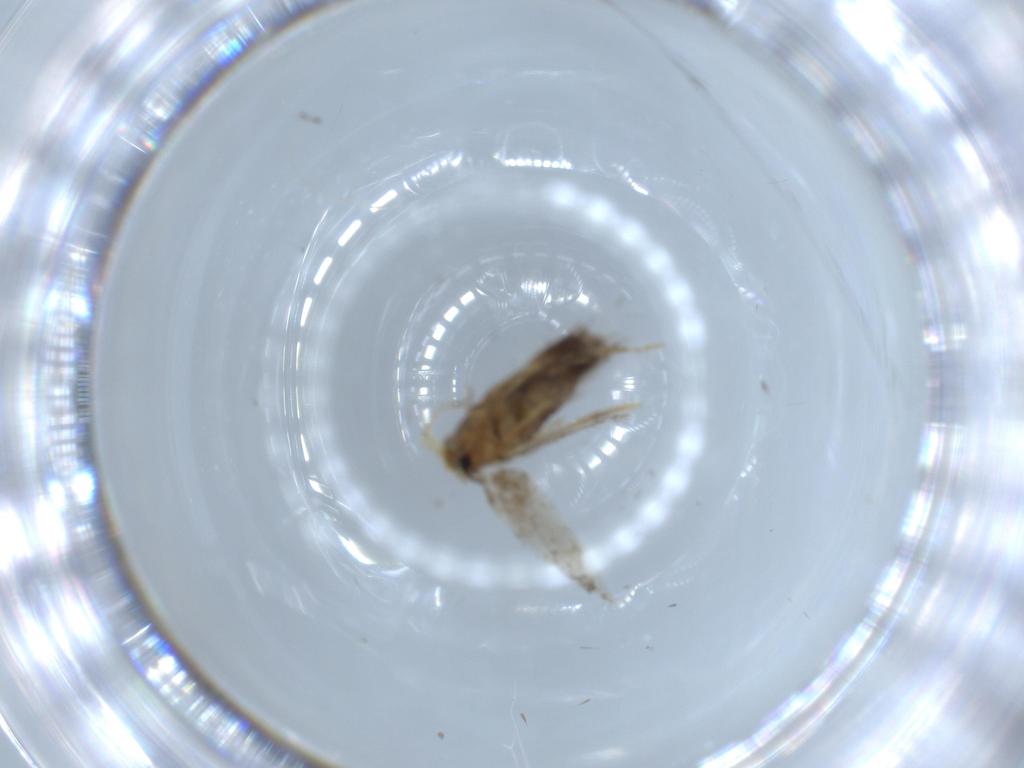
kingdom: Animalia
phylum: Arthropoda
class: Insecta
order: Lepidoptera
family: Nepticulidae
